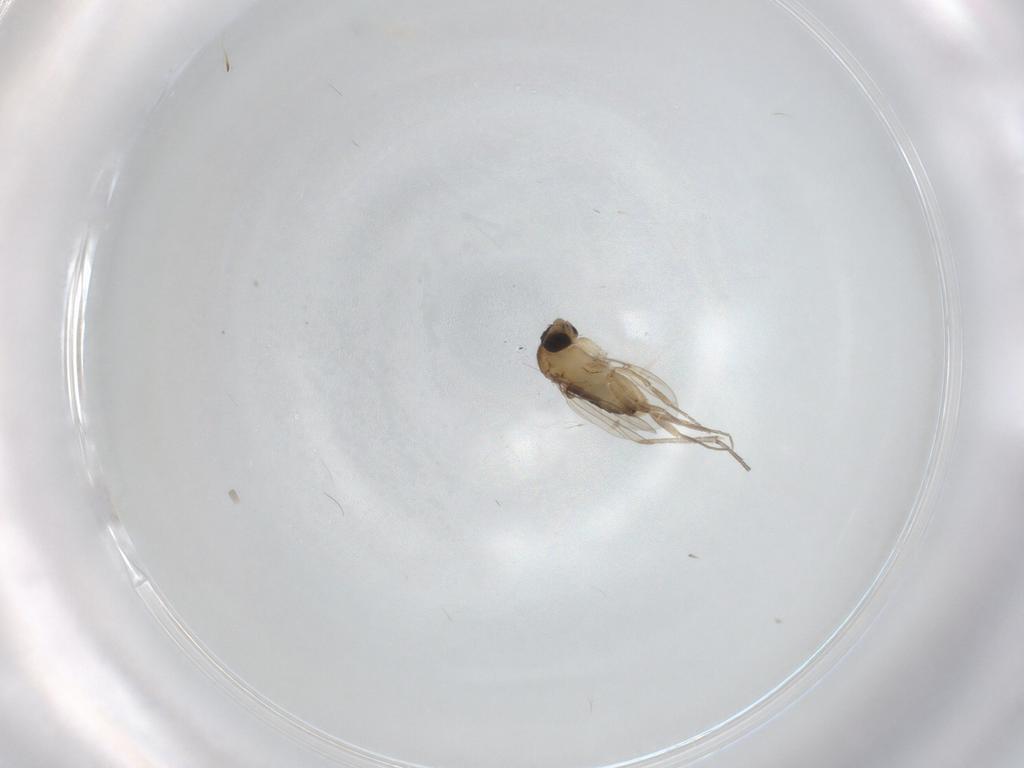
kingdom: Animalia
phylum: Arthropoda
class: Insecta
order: Diptera
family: Phoridae
